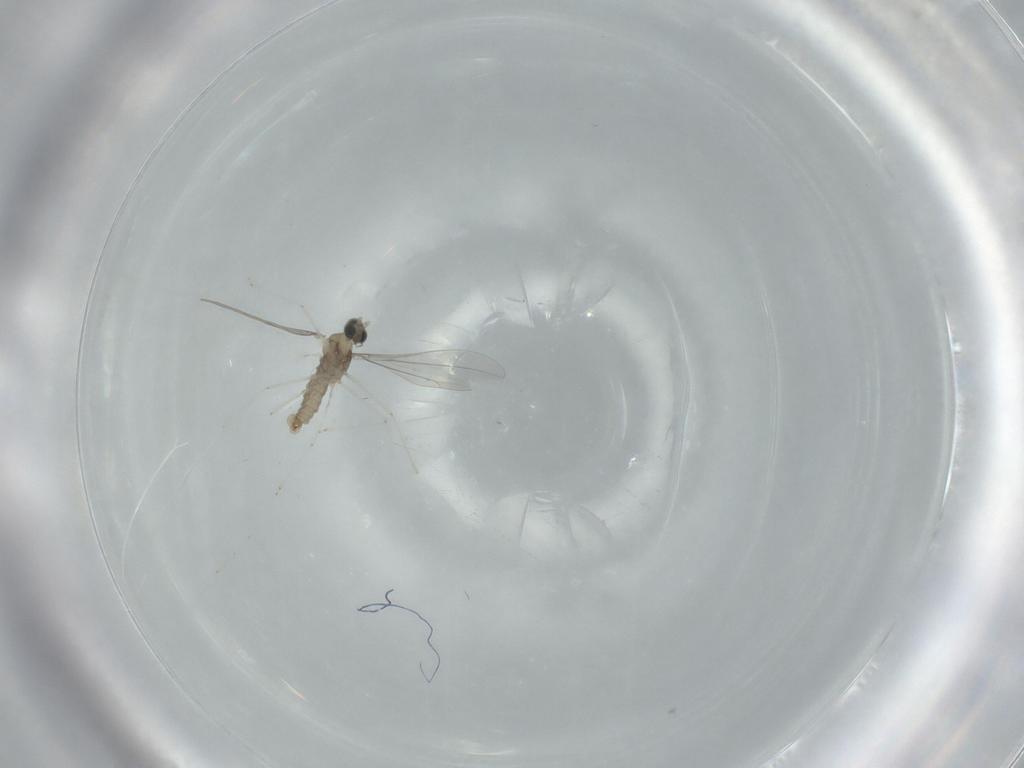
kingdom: Animalia
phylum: Arthropoda
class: Insecta
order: Diptera
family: Cecidomyiidae
